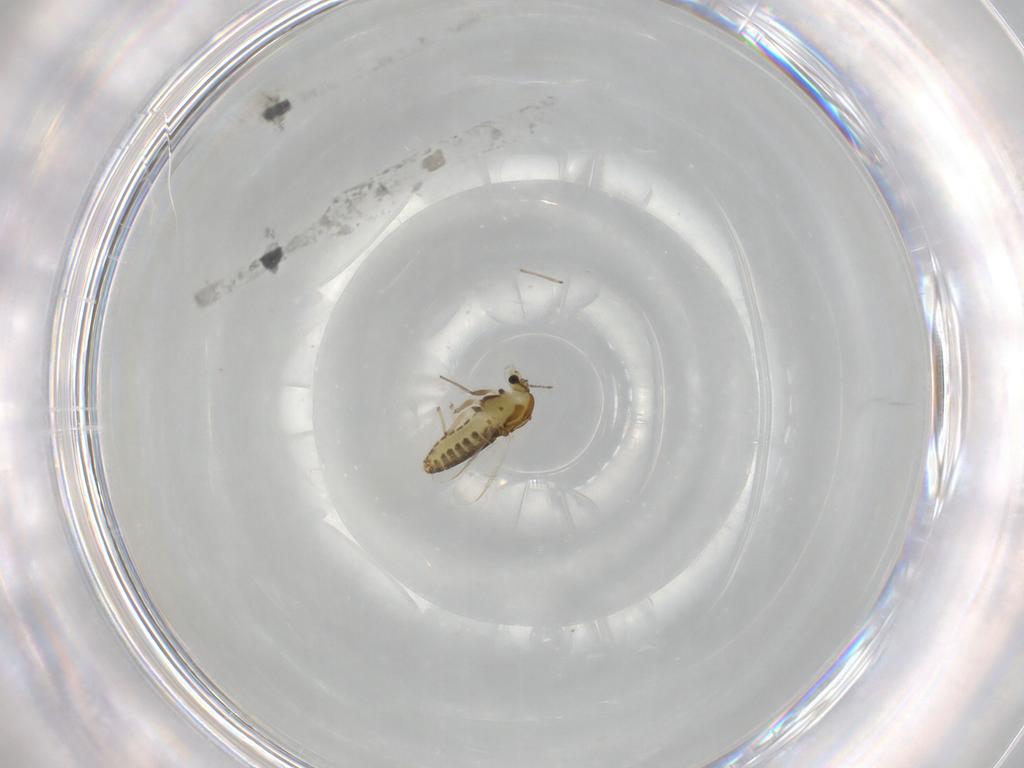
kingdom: Animalia
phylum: Arthropoda
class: Insecta
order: Diptera
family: Chironomidae
